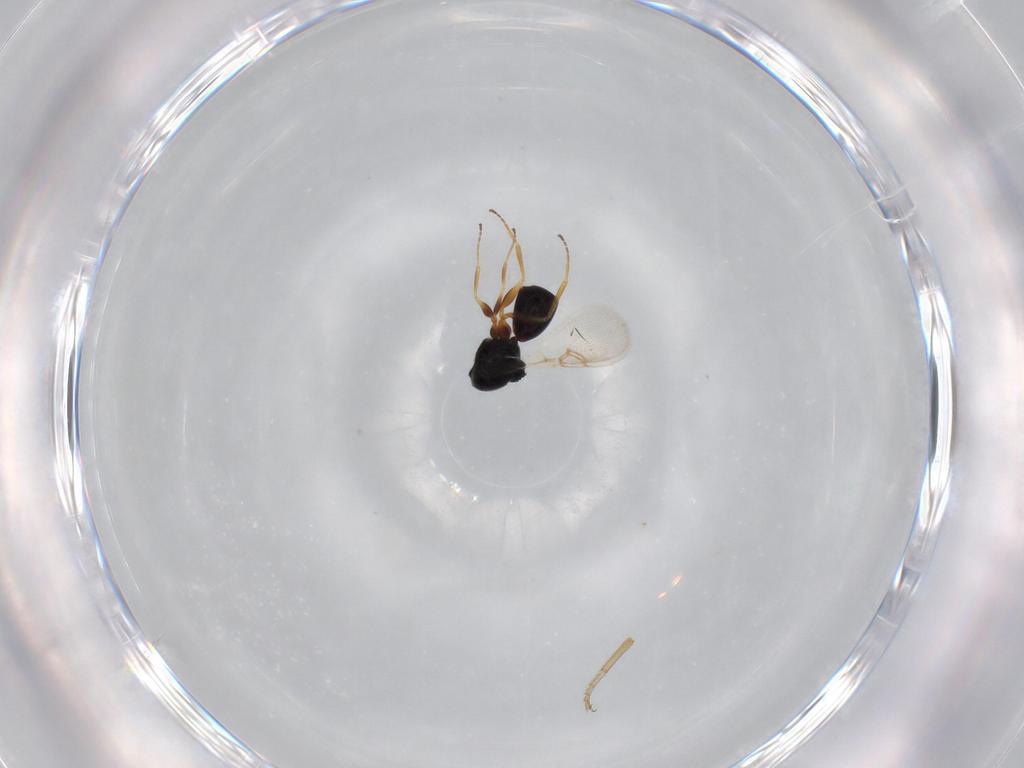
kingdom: Animalia
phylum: Arthropoda
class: Insecta
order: Hymenoptera
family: Figitidae
